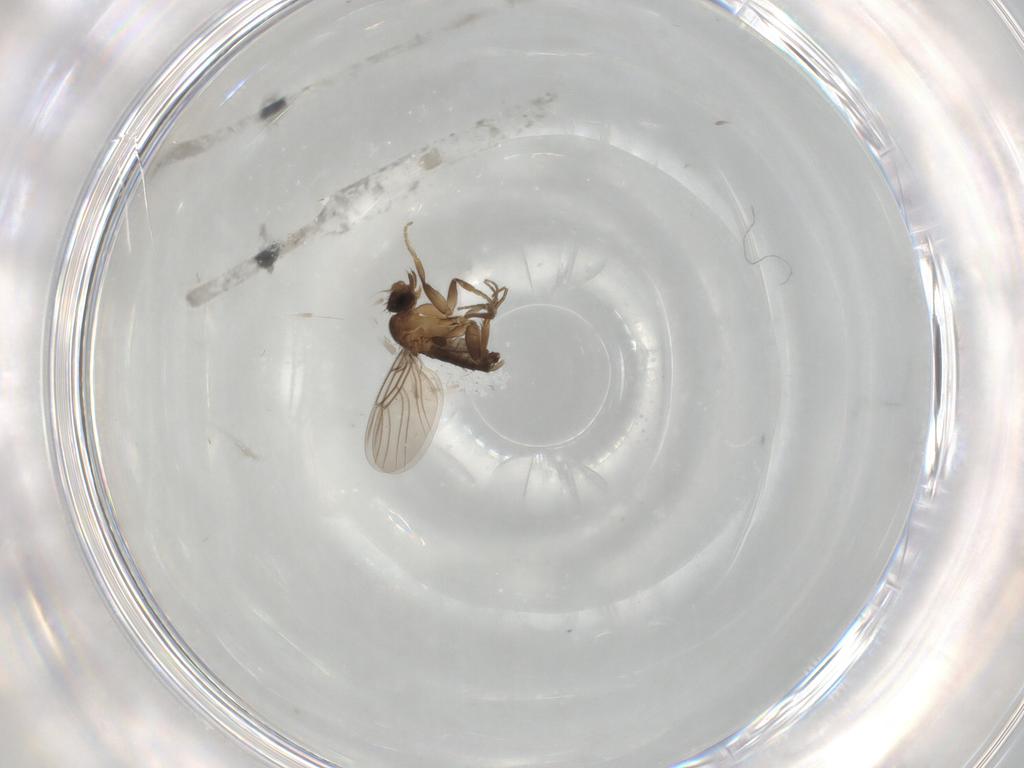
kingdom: Animalia
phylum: Arthropoda
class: Insecta
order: Diptera
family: Phoridae
